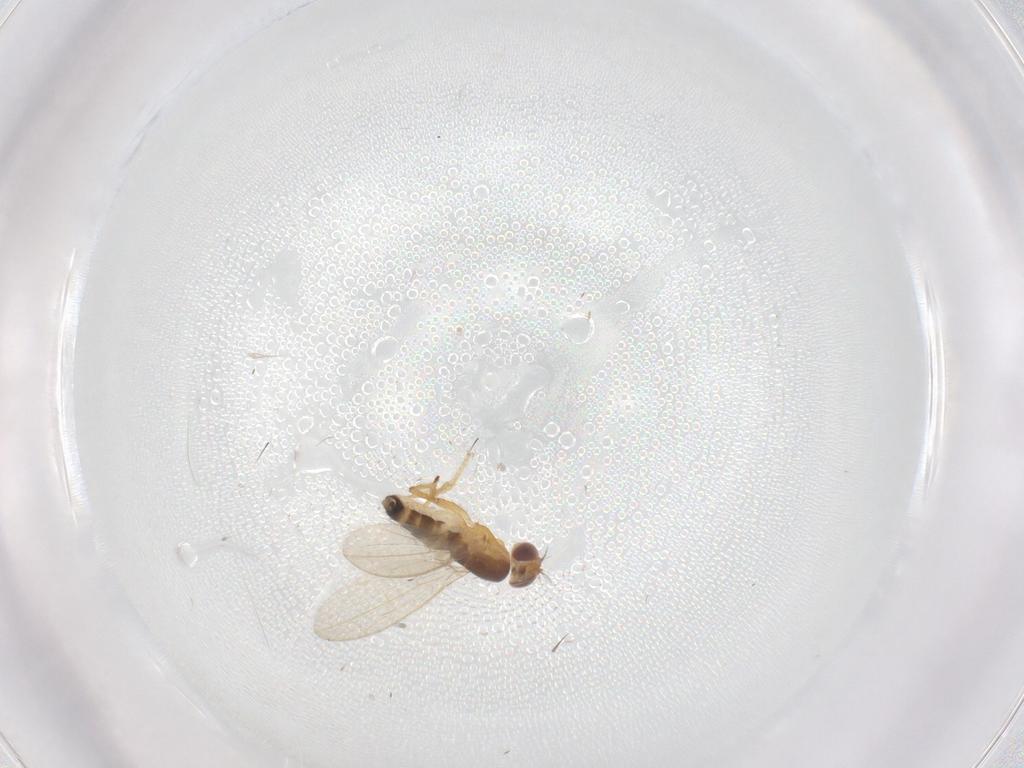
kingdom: Animalia
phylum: Arthropoda
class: Insecta
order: Diptera
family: Periscelididae
